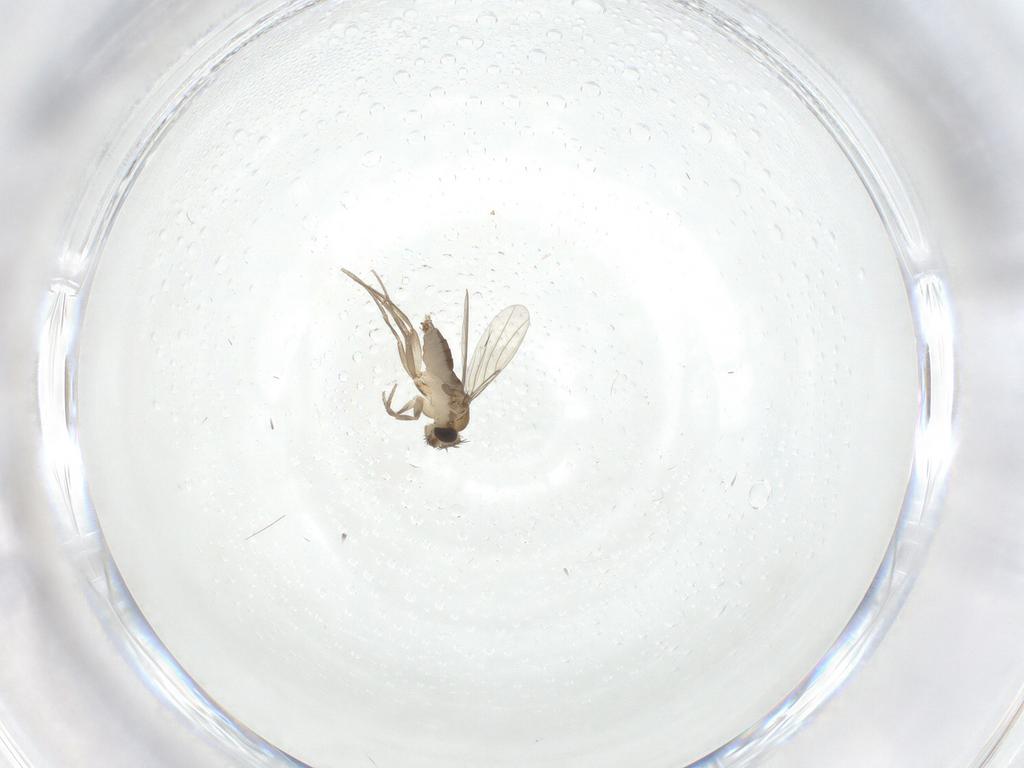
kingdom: Animalia
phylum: Arthropoda
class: Insecta
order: Diptera
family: Phoridae
